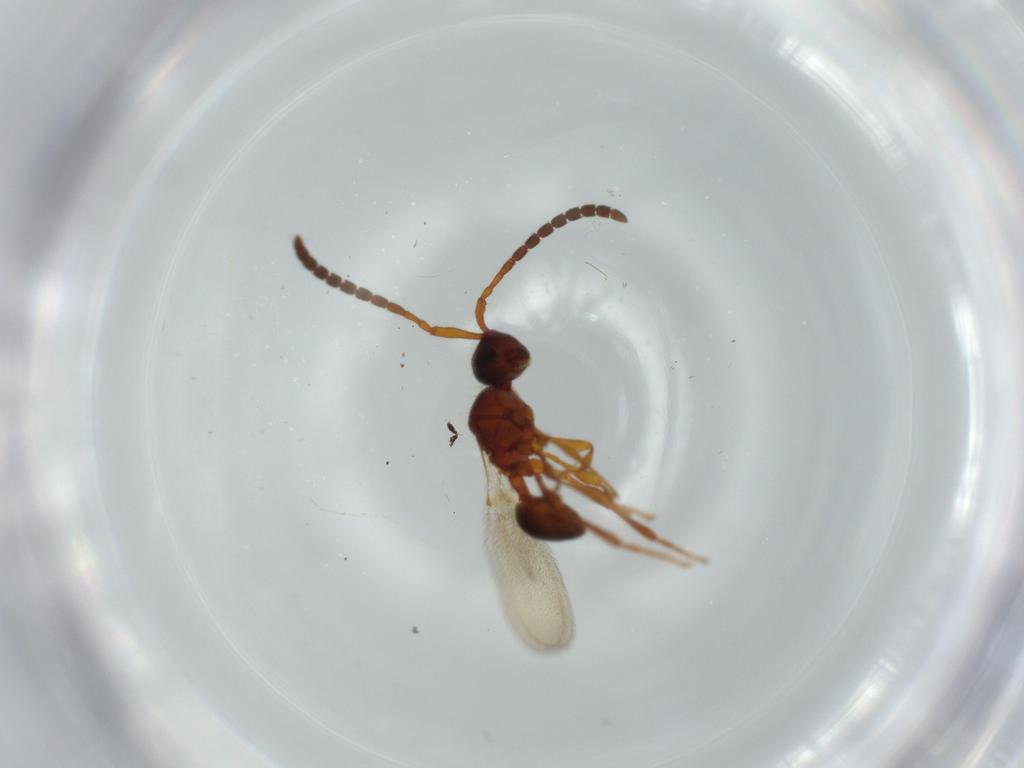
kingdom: Animalia
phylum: Arthropoda
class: Insecta
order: Hymenoptera
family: Diapriidae
